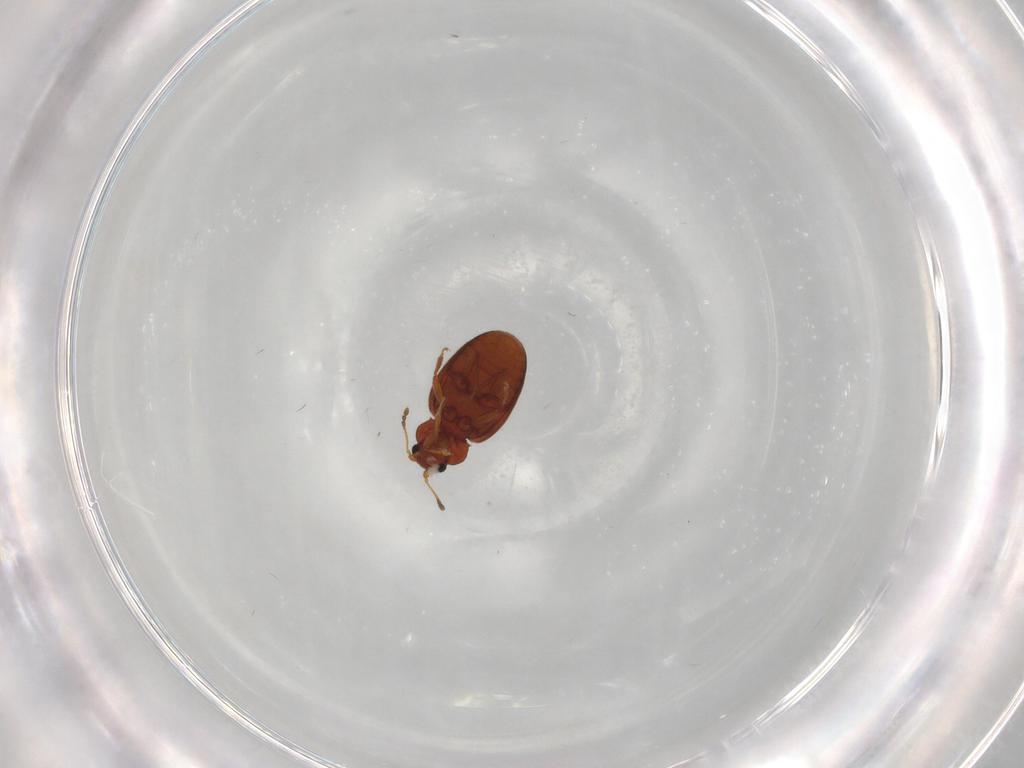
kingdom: Animalia
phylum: Arthropoda
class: Insecta
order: Coleoptera
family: Latridiidae
